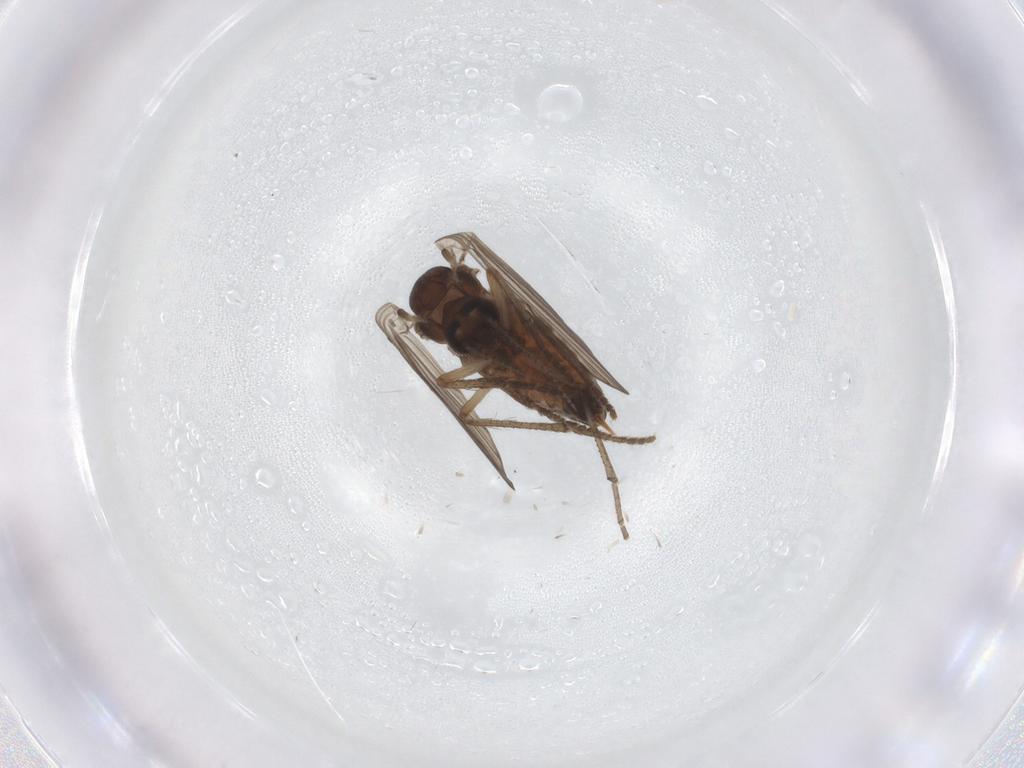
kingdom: Animalia
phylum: Arthropoda
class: Insecta
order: Diptera
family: Psychodidae
